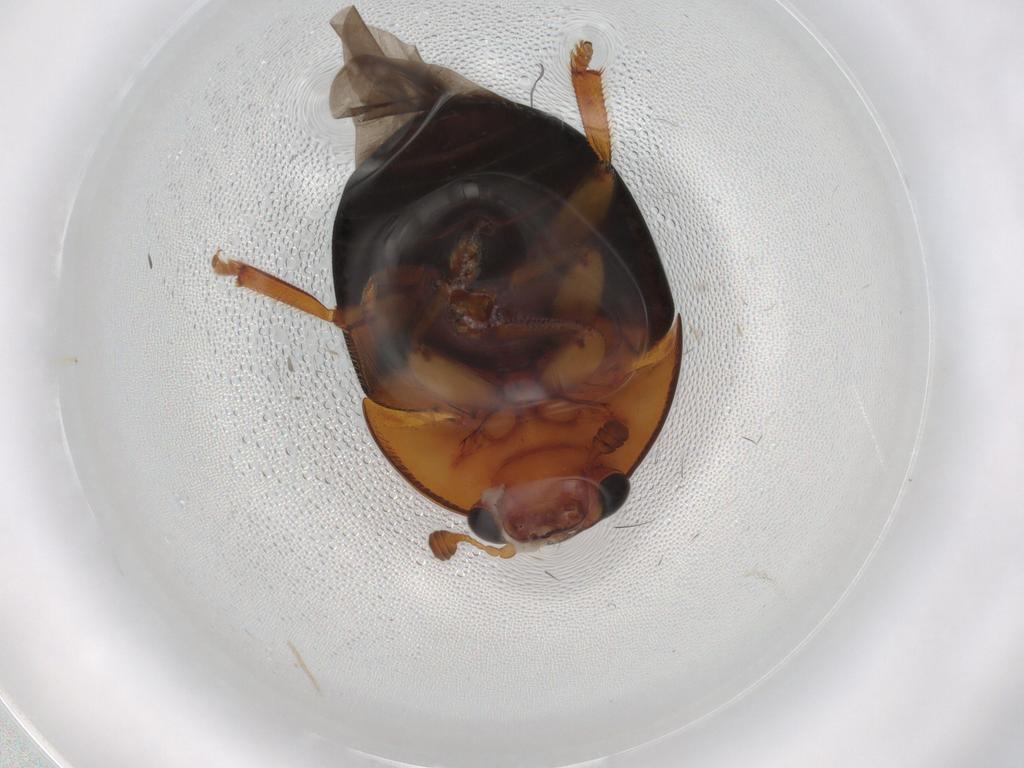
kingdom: Animalia
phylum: Arthropoda
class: Insecta
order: Coleoptera
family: Nitidulidae
